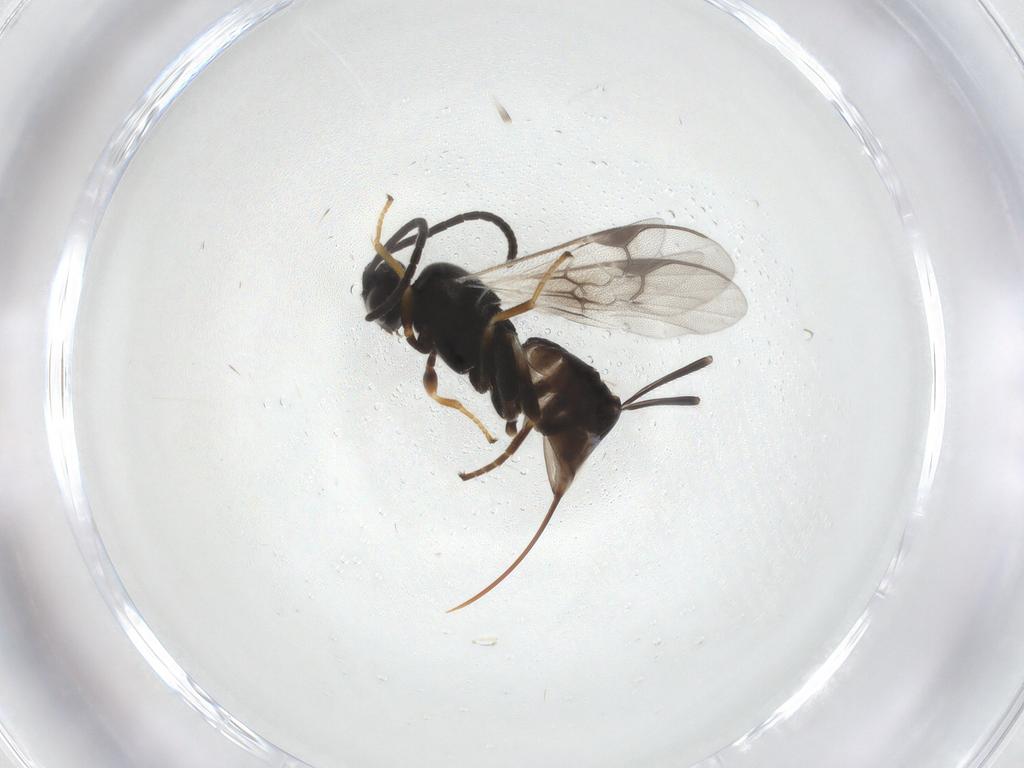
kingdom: Animalia
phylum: Arthropoda
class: Insecta
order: Hymenoptera
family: Braconidae
